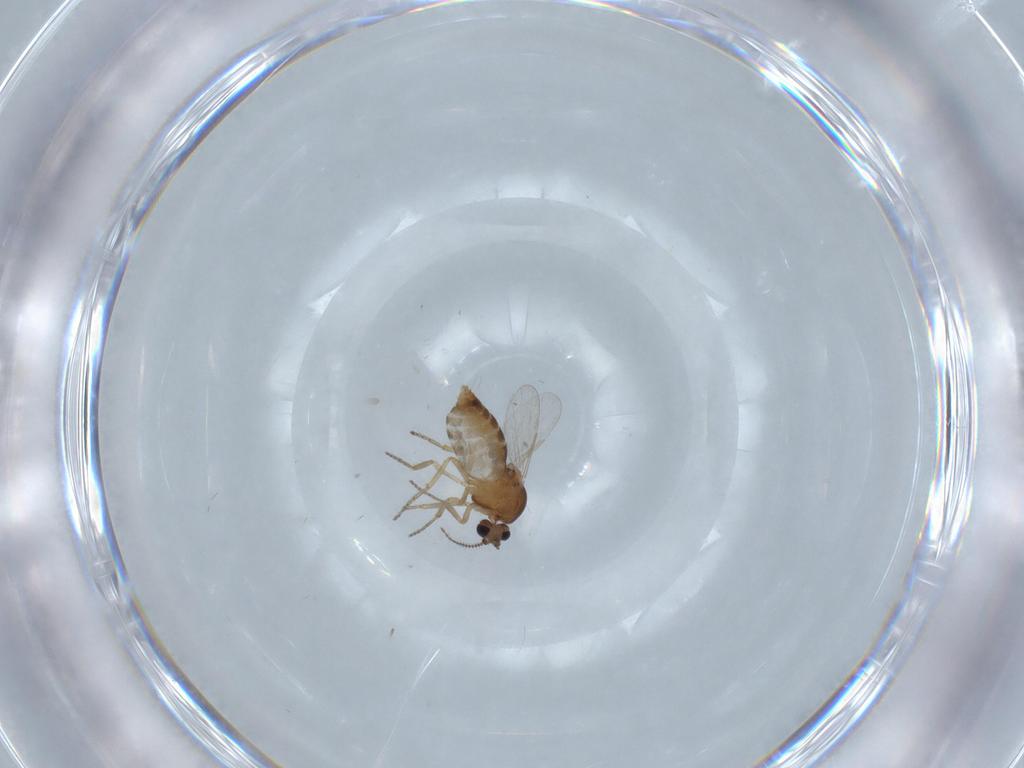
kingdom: Animalia
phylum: Arthropoda
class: Insecta
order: Diptera
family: Ceratopogonidae
